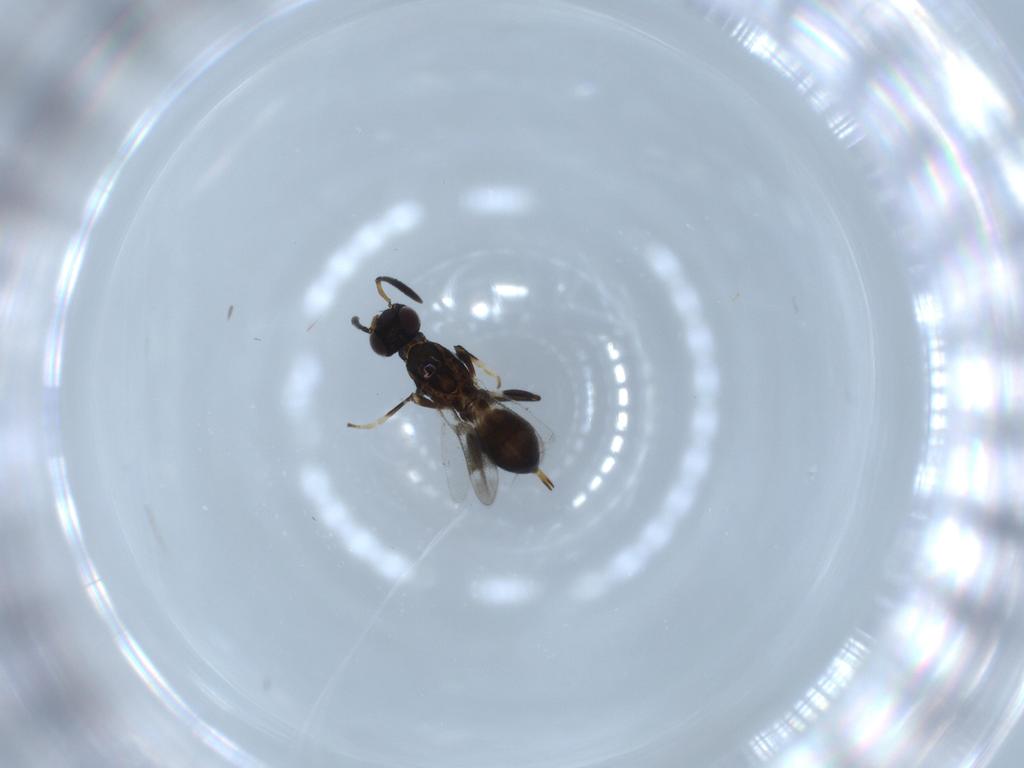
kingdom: Animalia
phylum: Arthropoda
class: Insecta
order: Hymenoptera
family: Eupelmidae
